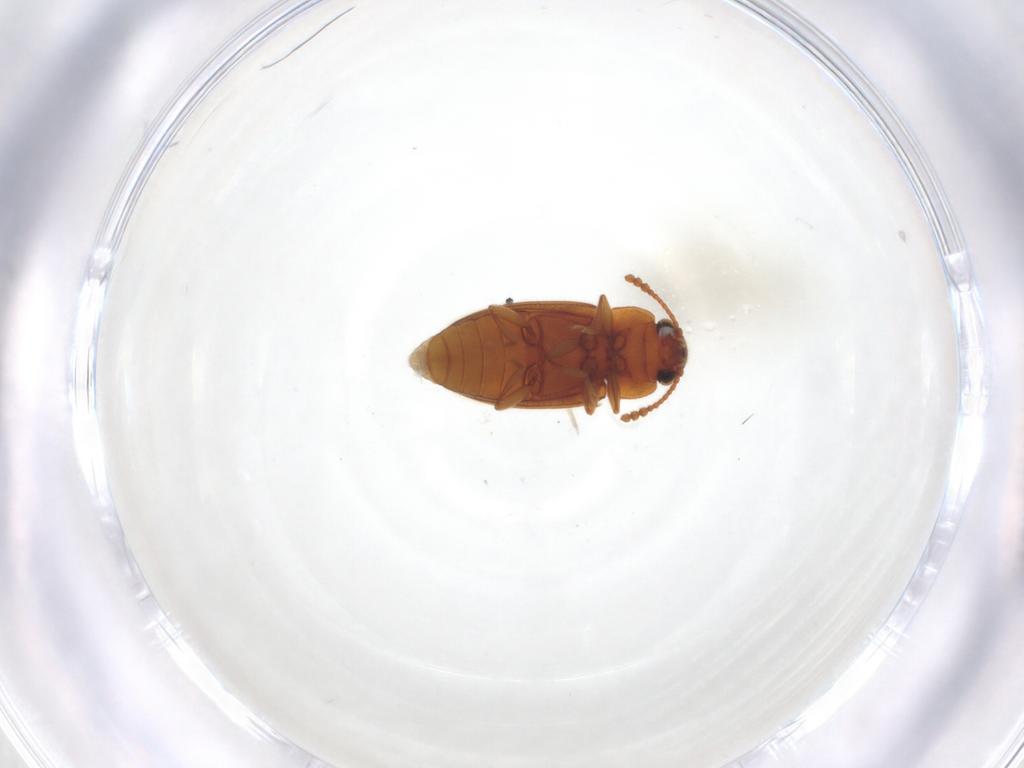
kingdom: Animalia
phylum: Arthropoda
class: Insecta
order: Coleoptera
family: Erotylidae
